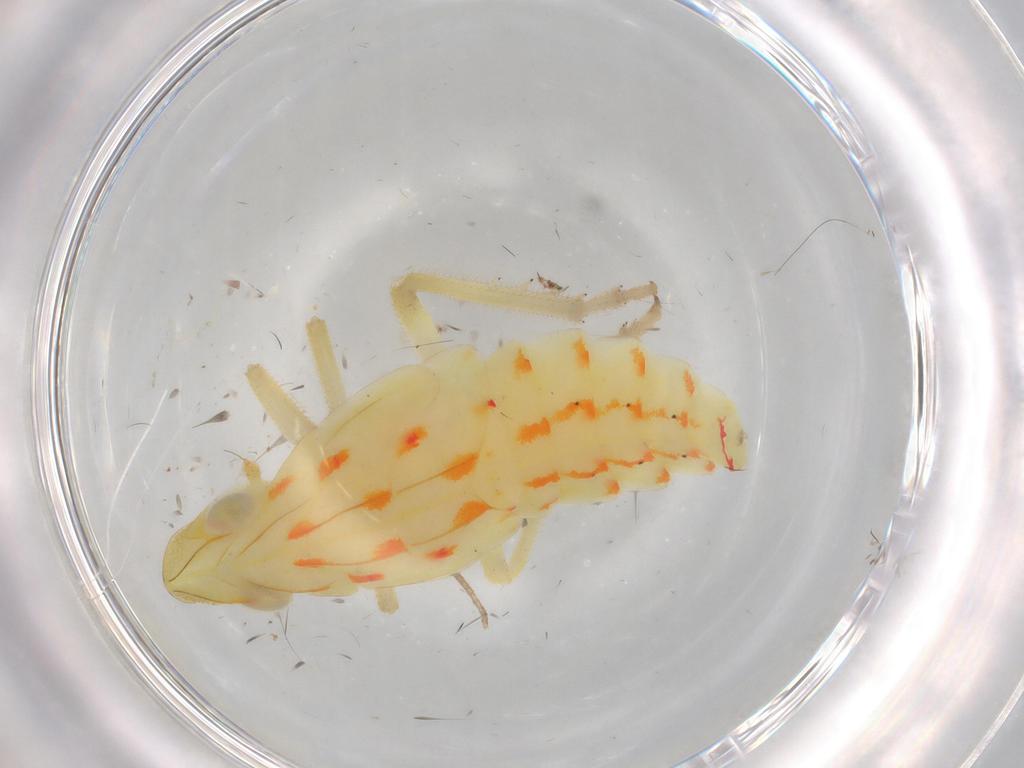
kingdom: Animalia
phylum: Arthropoda
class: Insecta
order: Hemiptera
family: Tropiduchidae
